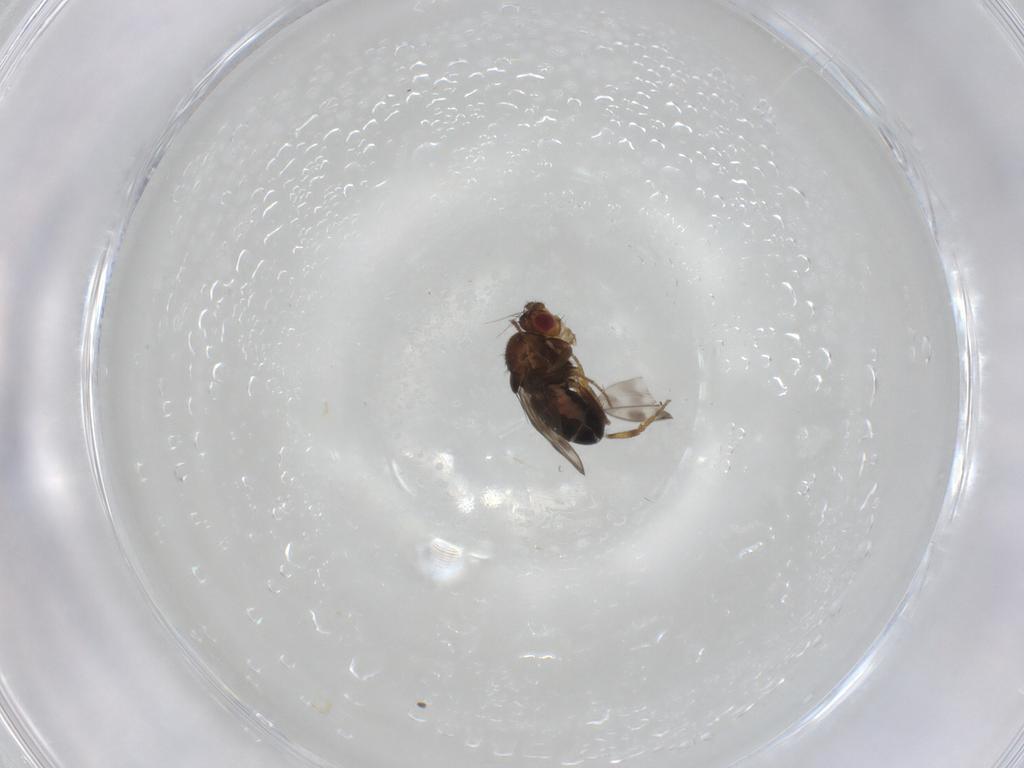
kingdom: Animalia
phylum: Arthropoda
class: Insecta
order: Diptera
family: Sphaeroceridae
